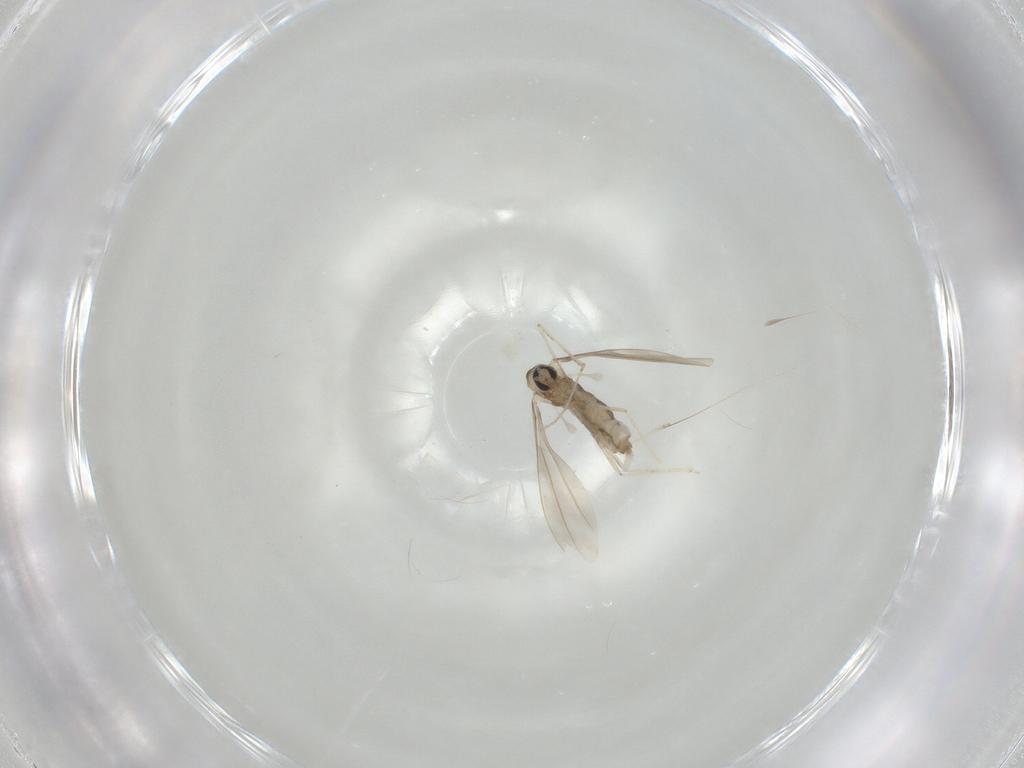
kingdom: Animalia
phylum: Arthropoda
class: Insecta
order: Diptera
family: Cecidomyiidae
